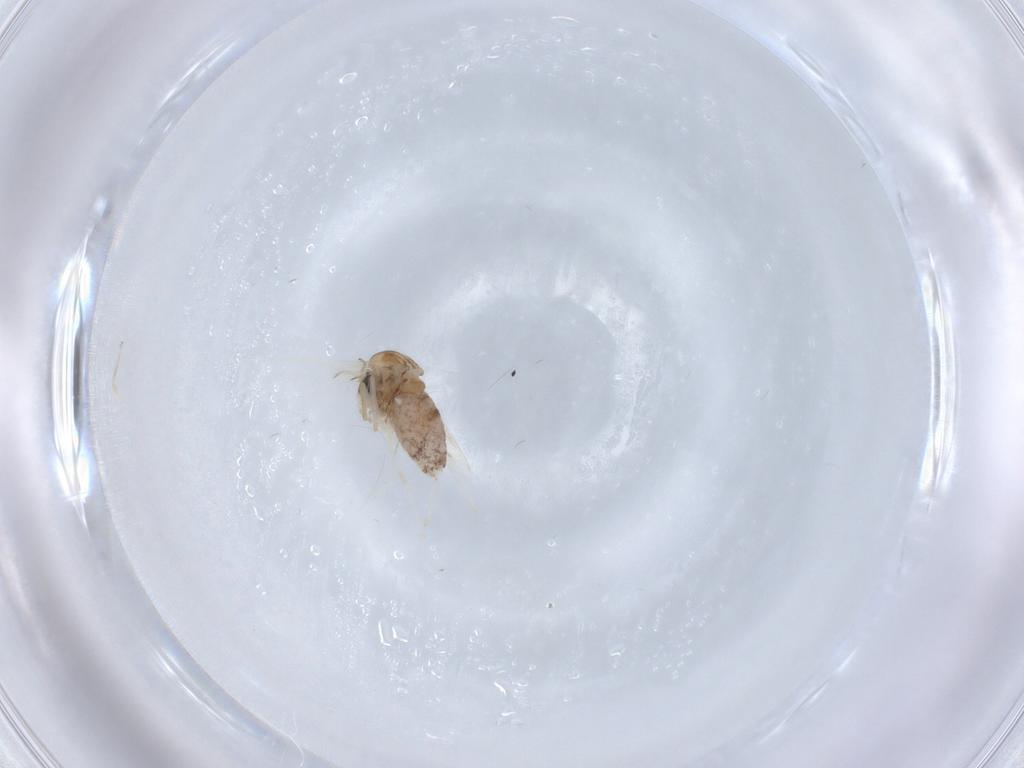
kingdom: Animalia
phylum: Arthropoda
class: Insecta
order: Diptera
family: Chironomidae
